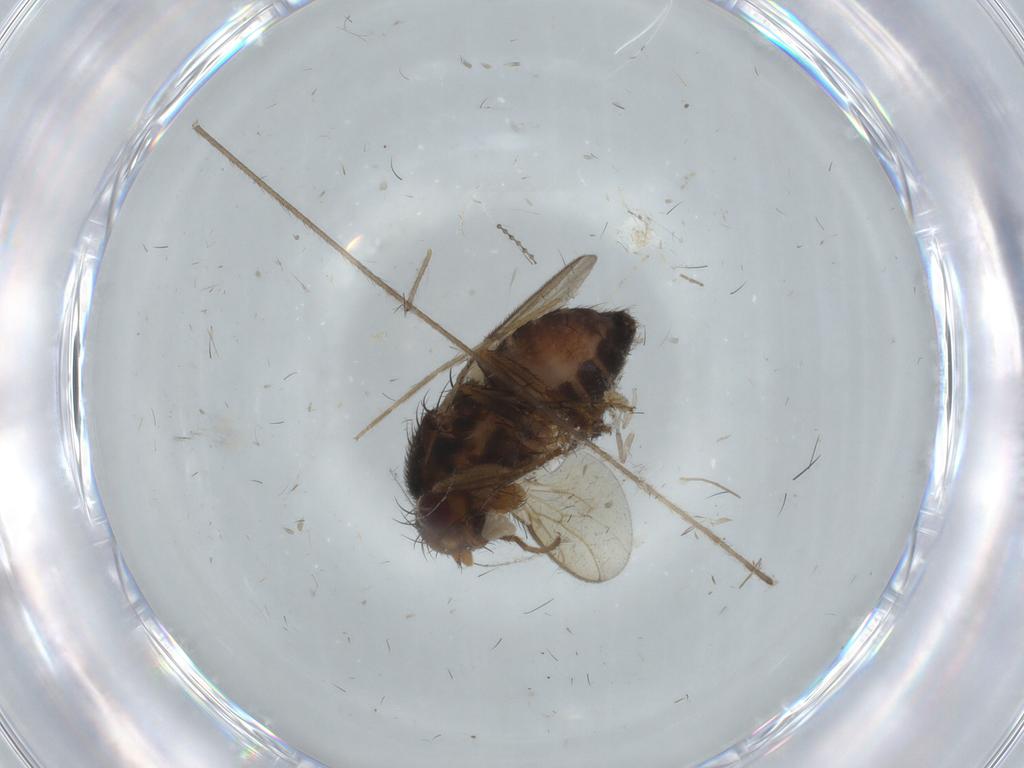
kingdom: Animalia
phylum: Arthropoda
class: Insecta
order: Diptera
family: Sphaeroceridae
